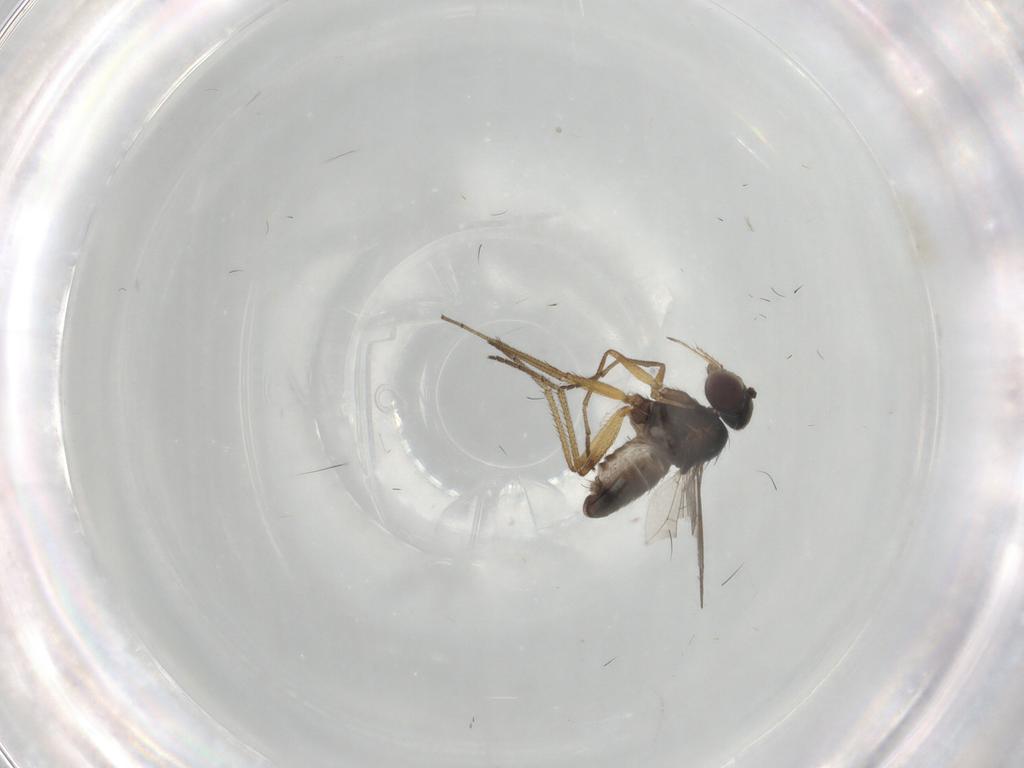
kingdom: Animalia
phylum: Arthropoda
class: Insecta
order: Diptera
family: Dolichopodidae
